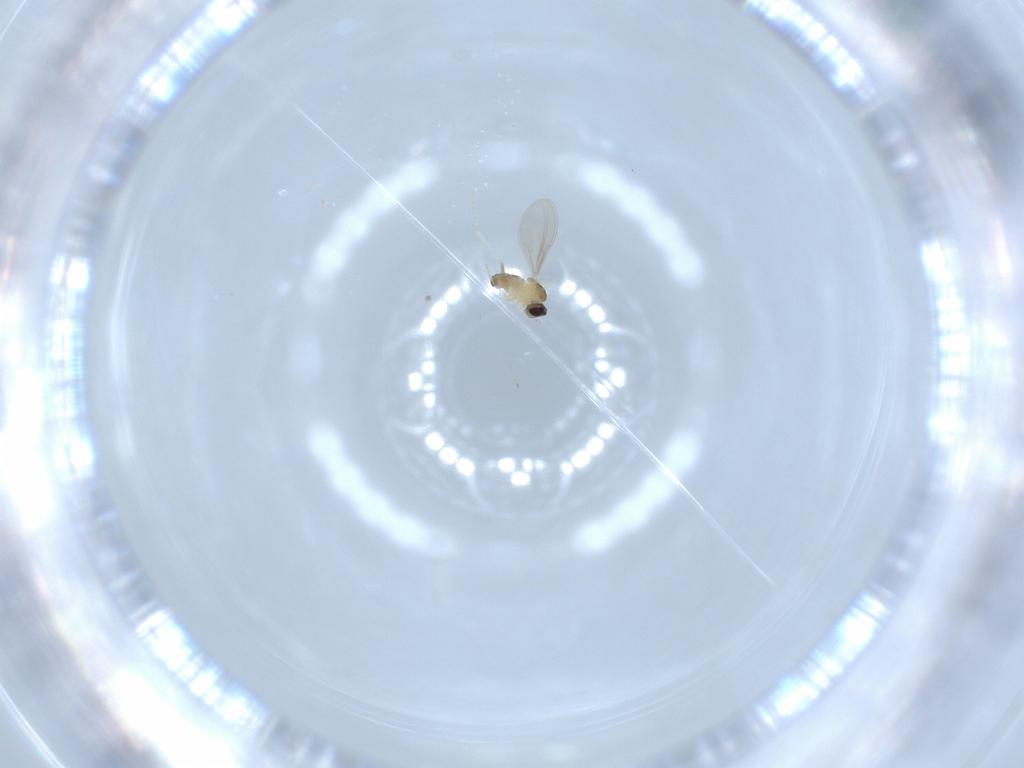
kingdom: Animalia
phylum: Arthropoda
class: Insecta
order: Diptera
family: Cecidomyiidae
